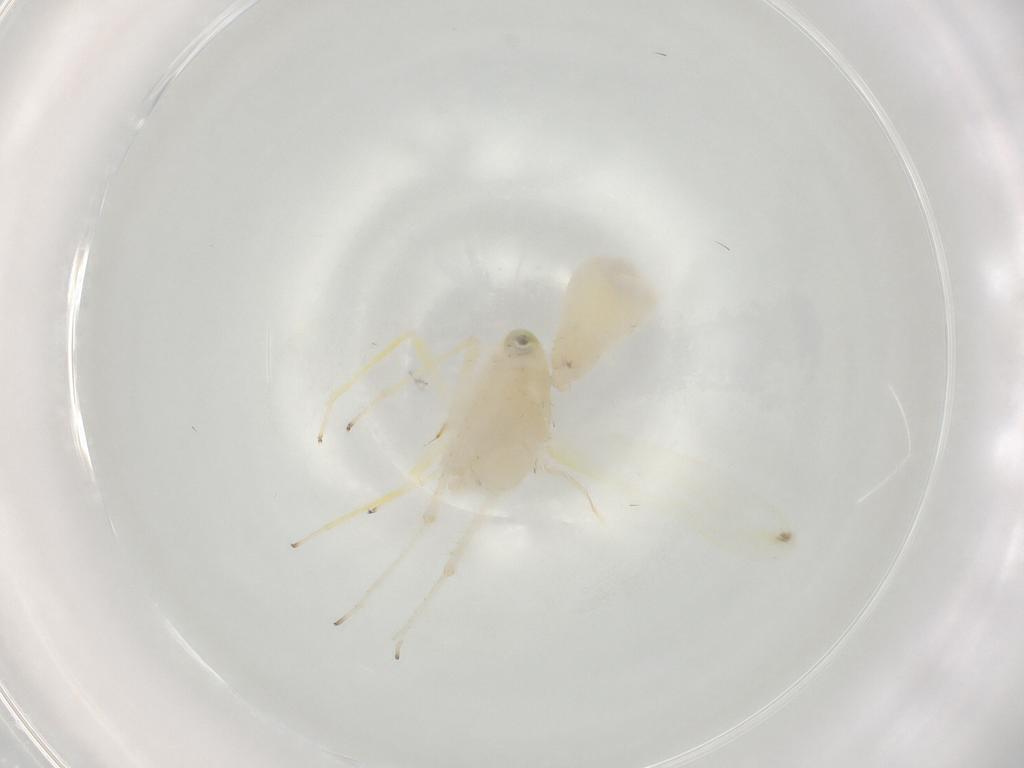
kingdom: Animalia
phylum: Arthropoda
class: Insecta
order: Hemiptera
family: Cicadellidae
